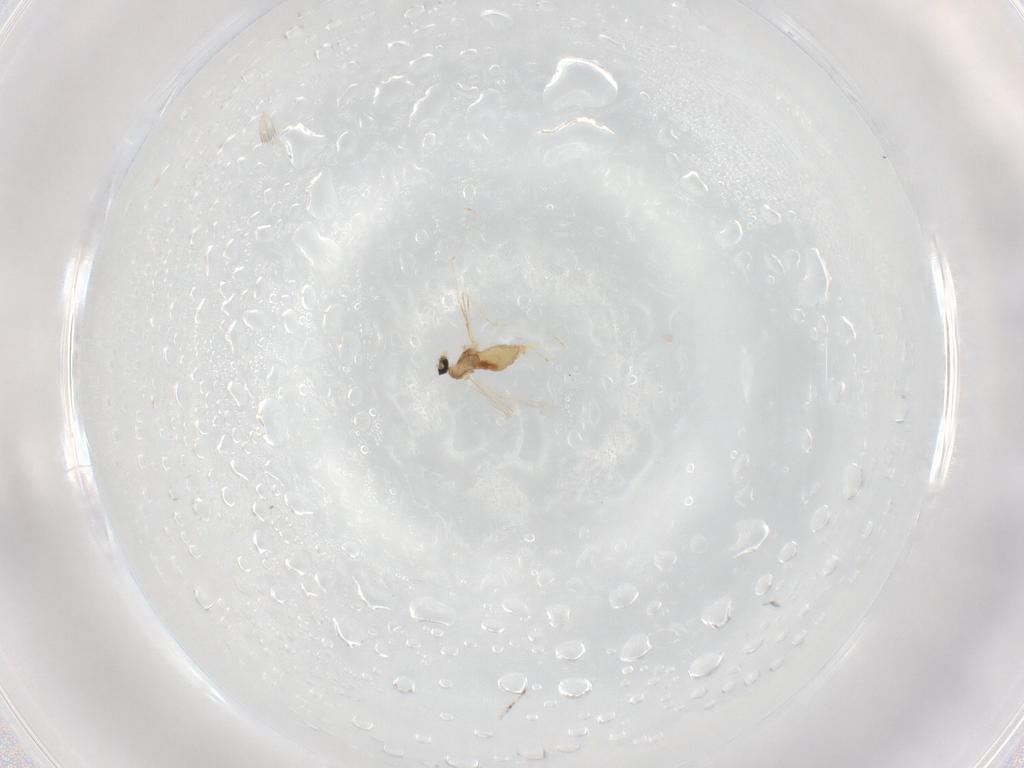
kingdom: Animalia
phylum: Arthropoda
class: Insecta
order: Diptera
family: Cecidomyiidae
